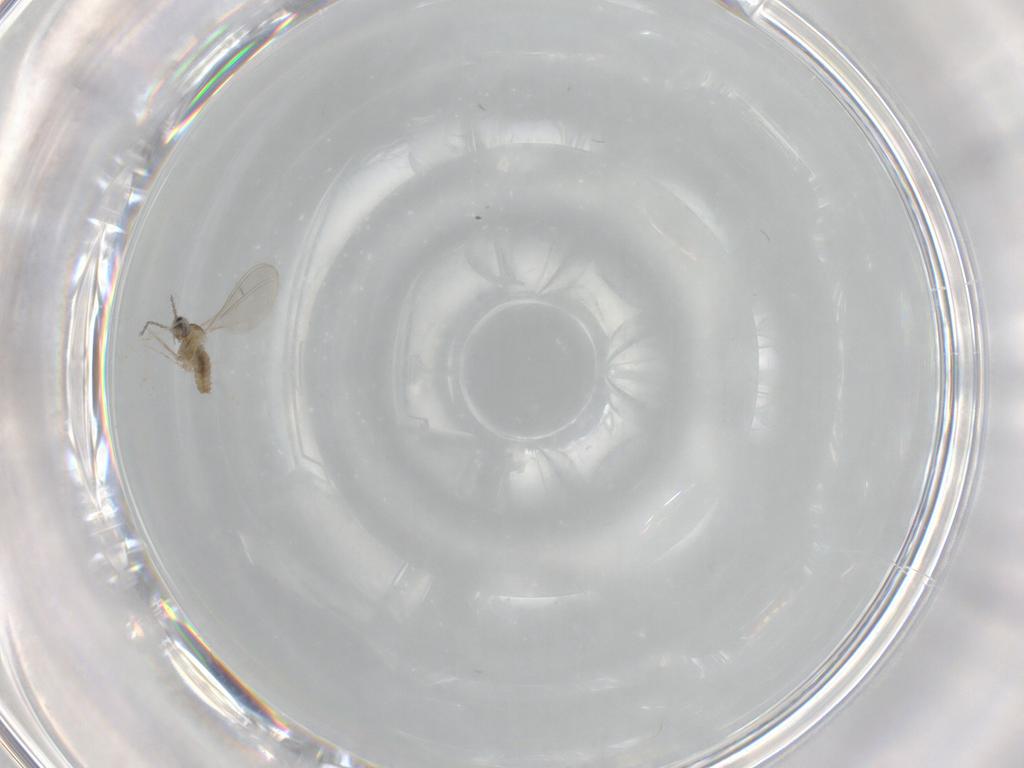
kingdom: Animalia
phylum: Arthropoda
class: Insecta
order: Diptera
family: Cecidomyiidae
